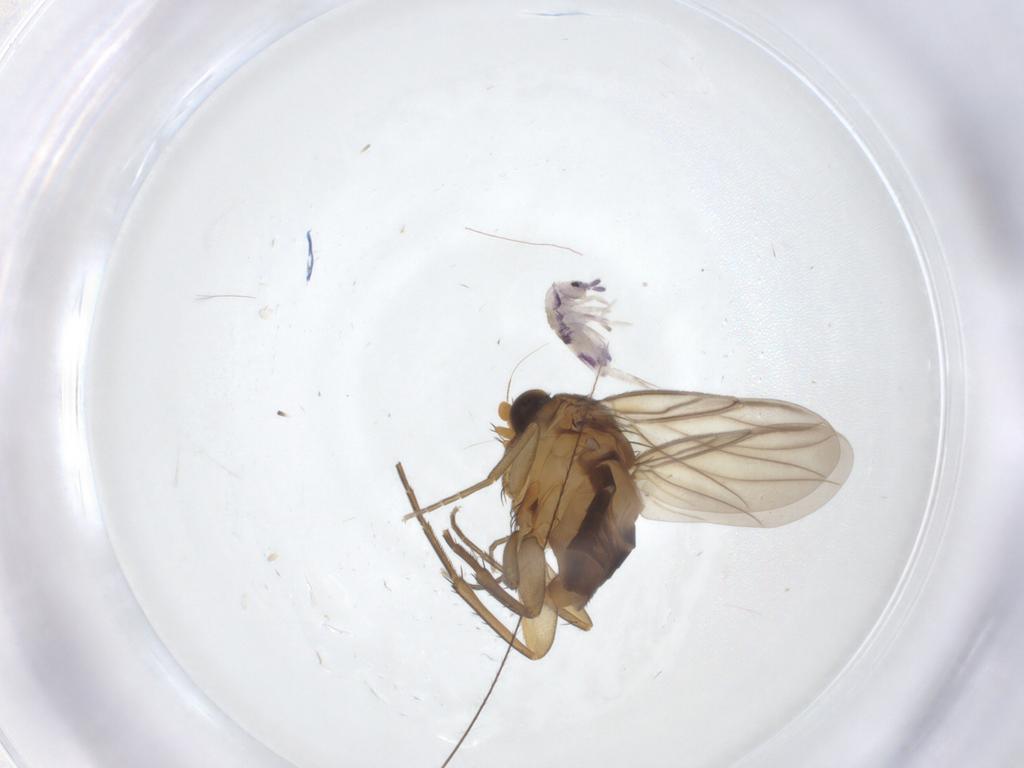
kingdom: Animalia
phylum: Arthropoda
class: Insecta
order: Diptera
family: Phoridae
